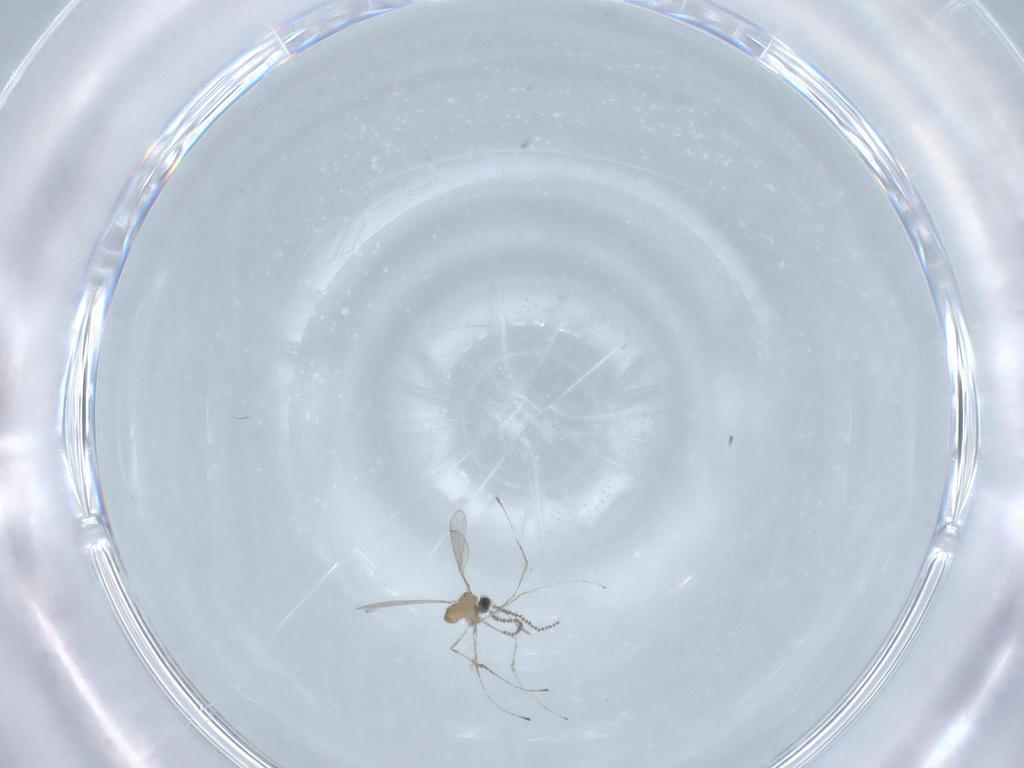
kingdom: Animalia
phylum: Arthropoda
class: Insecta
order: Diptera
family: Cecidomyiidae
